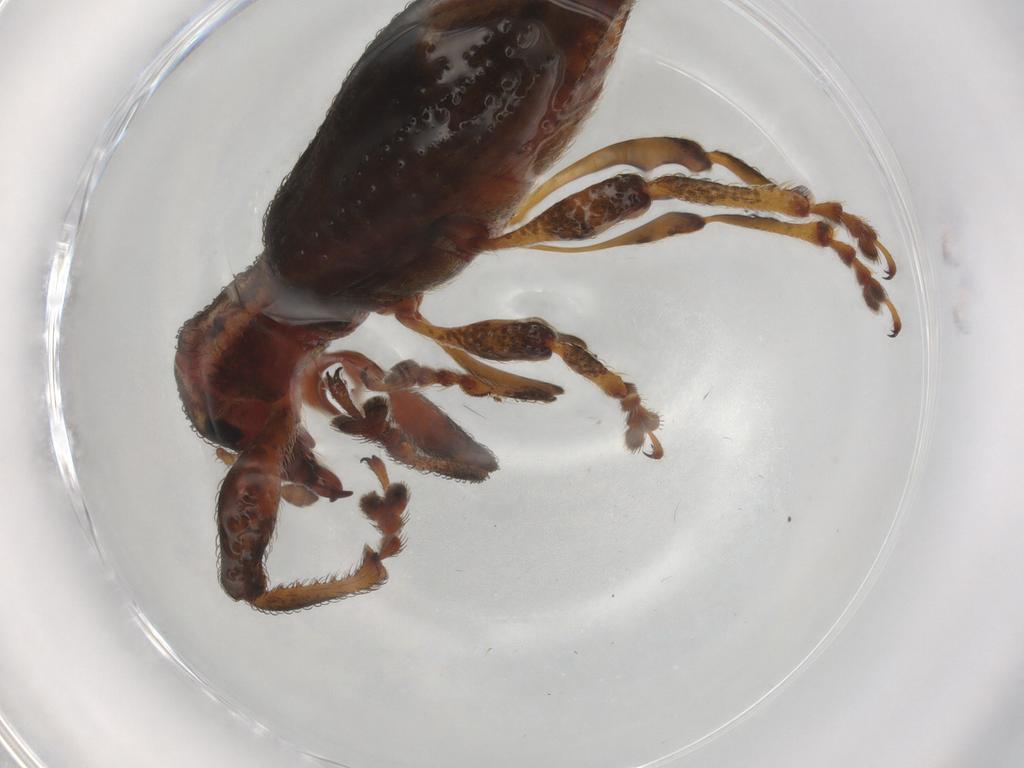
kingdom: Animalia
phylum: Arthropoda
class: Insecta
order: Coleoptera
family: Curculionidae
